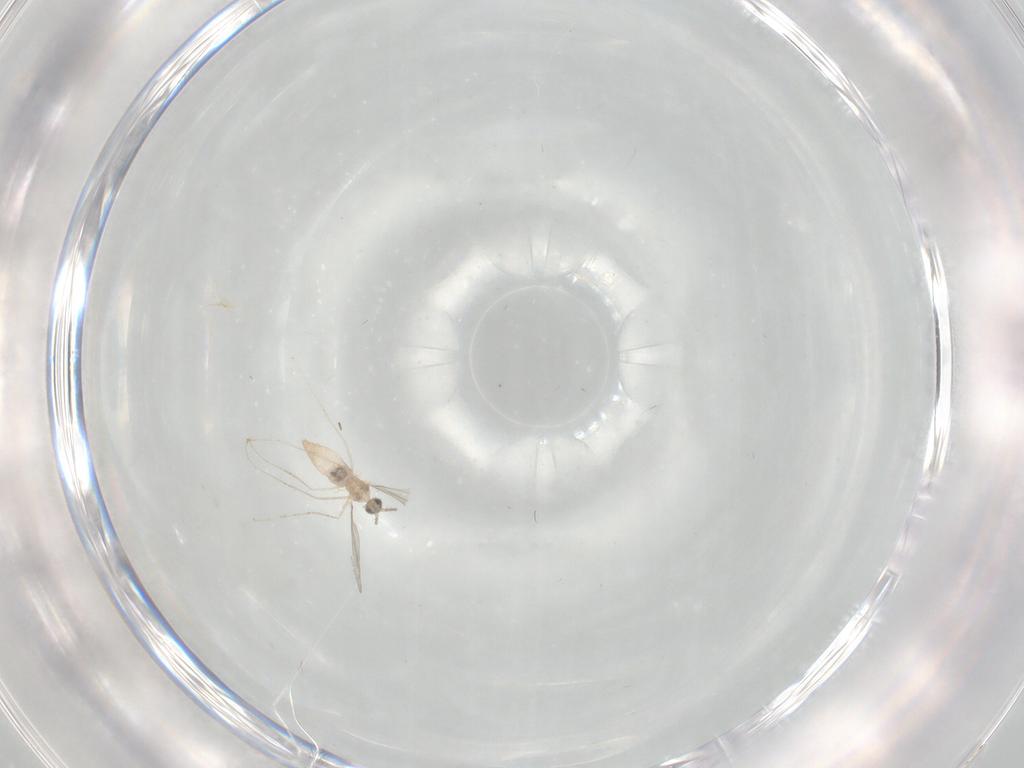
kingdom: Animalia
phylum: Arthropoda
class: Insecta
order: Diptera
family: Cecidomyiidae
